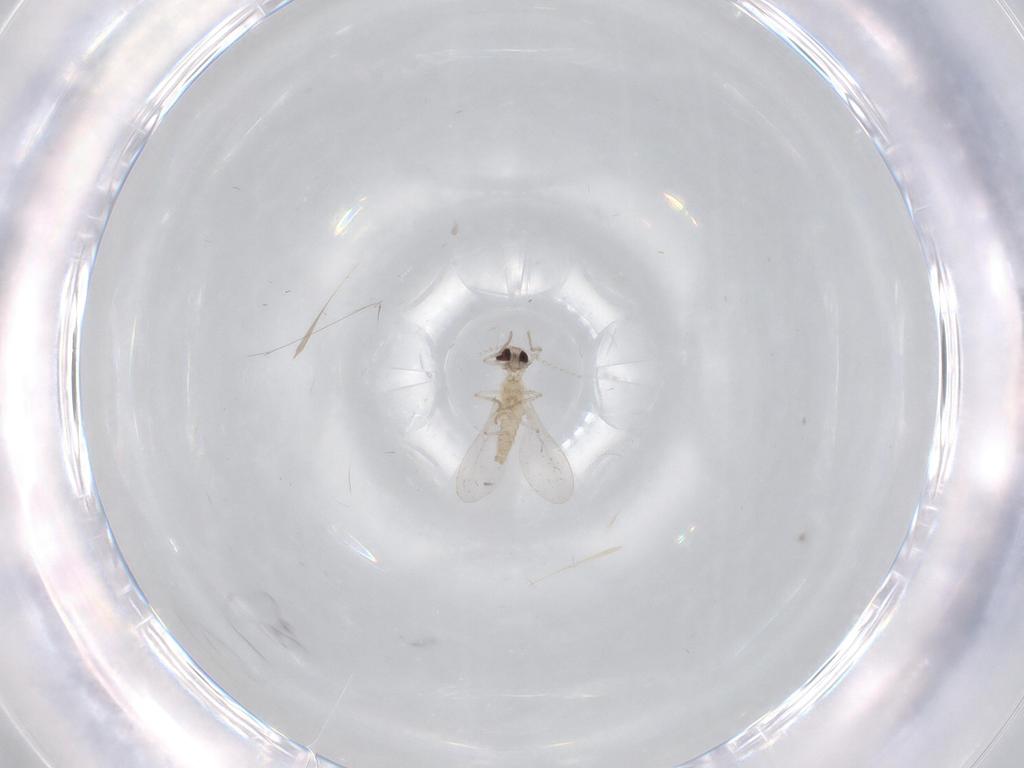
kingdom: Animalia
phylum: Arthropoda
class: Insecta
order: Diptera
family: Cecidomyiidae
